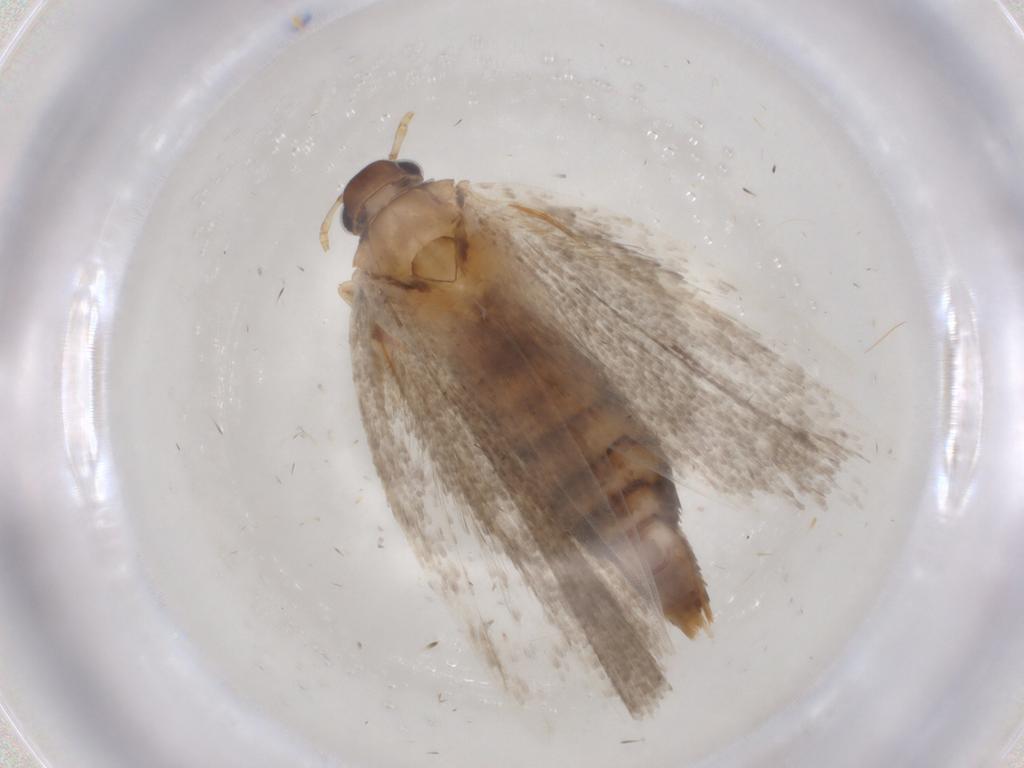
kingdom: Animalia
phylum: Arthropoda
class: Insecta
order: Lepidoptera
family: Gelechiidae
